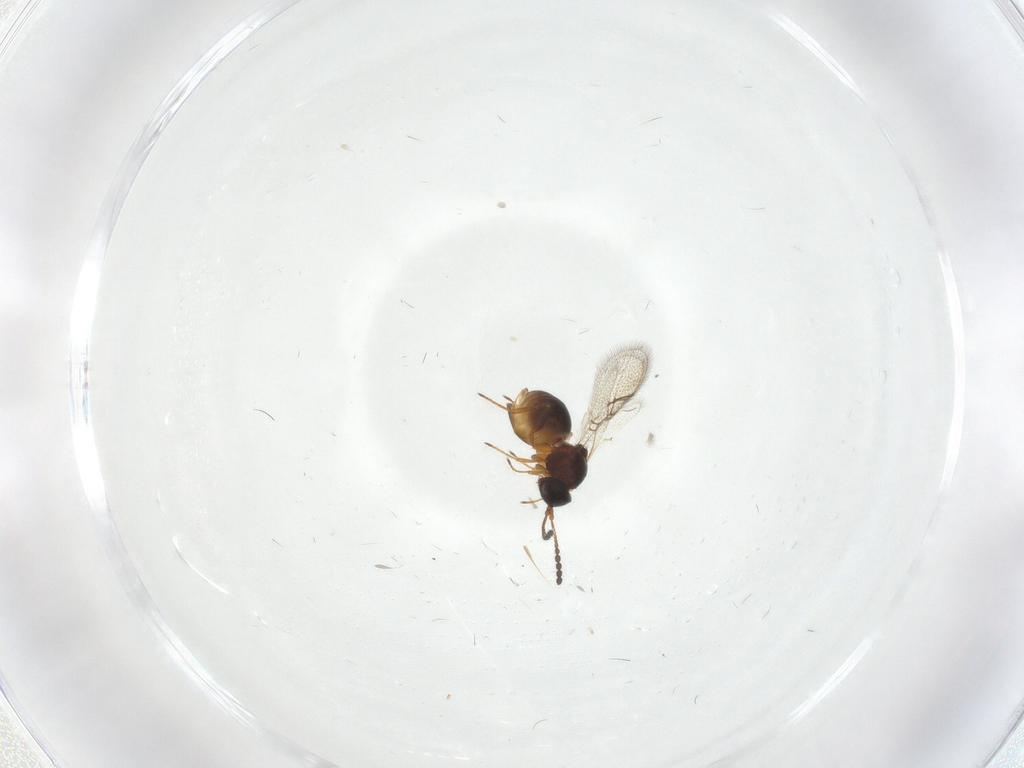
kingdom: Animalia
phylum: Arthropoda
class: Insecta
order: Hymenoptera
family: Figitidae
